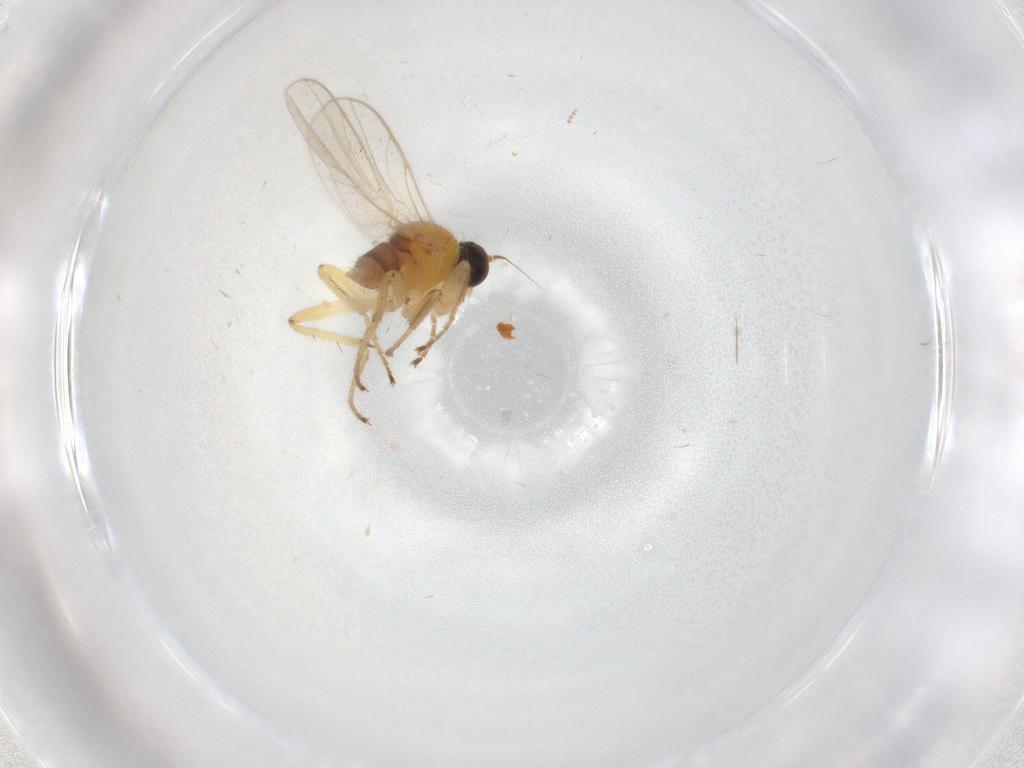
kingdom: Animalia
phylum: Arthropoda
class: Insecta
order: Diptera
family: Hybotidae
